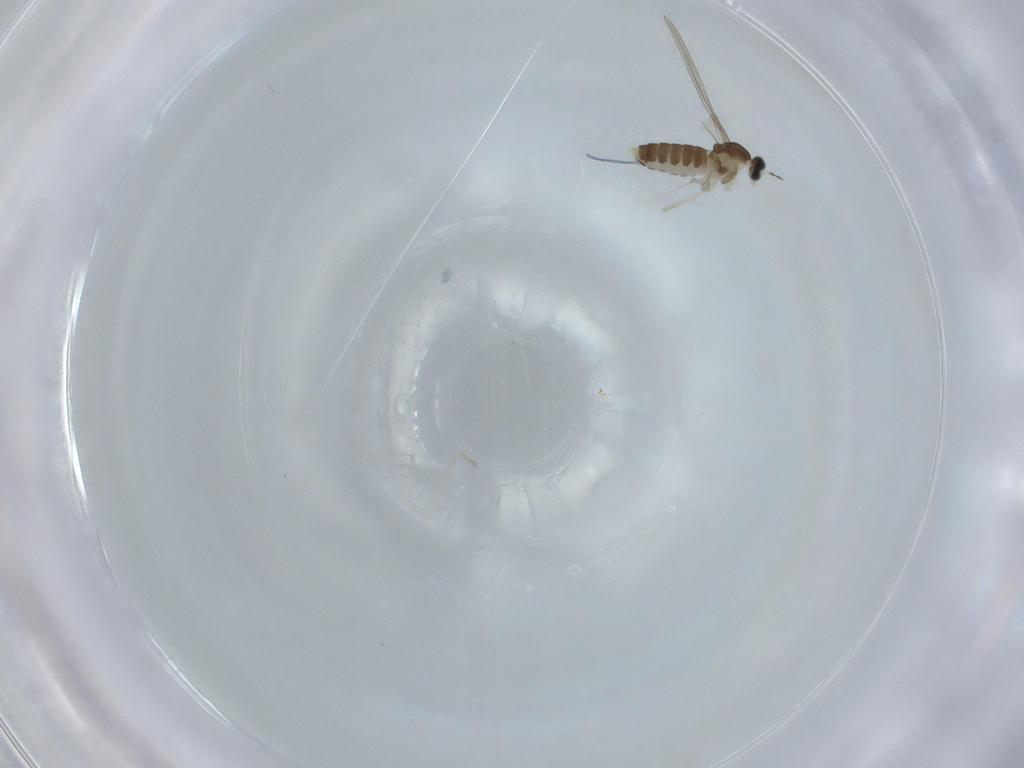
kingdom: Animalia
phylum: Arthropoda
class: Insecta
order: Diptera
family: Cecidomyiidae
